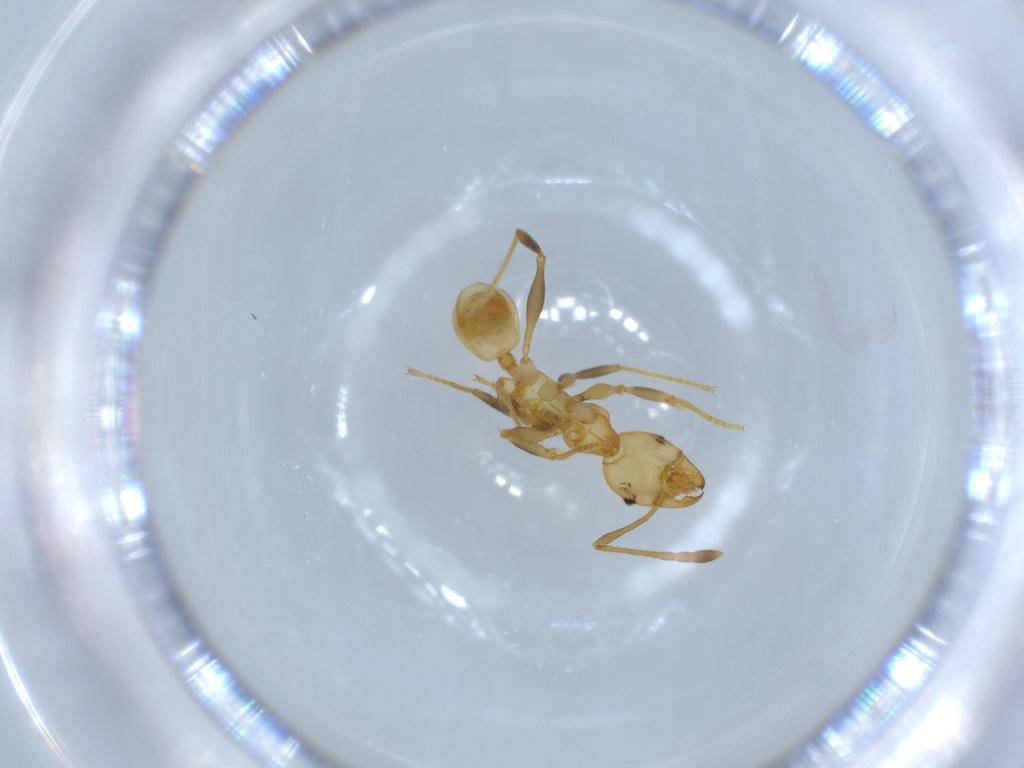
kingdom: Animalia
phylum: Arthropoda
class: Insecta
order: Hymenoptera
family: Formicidae
